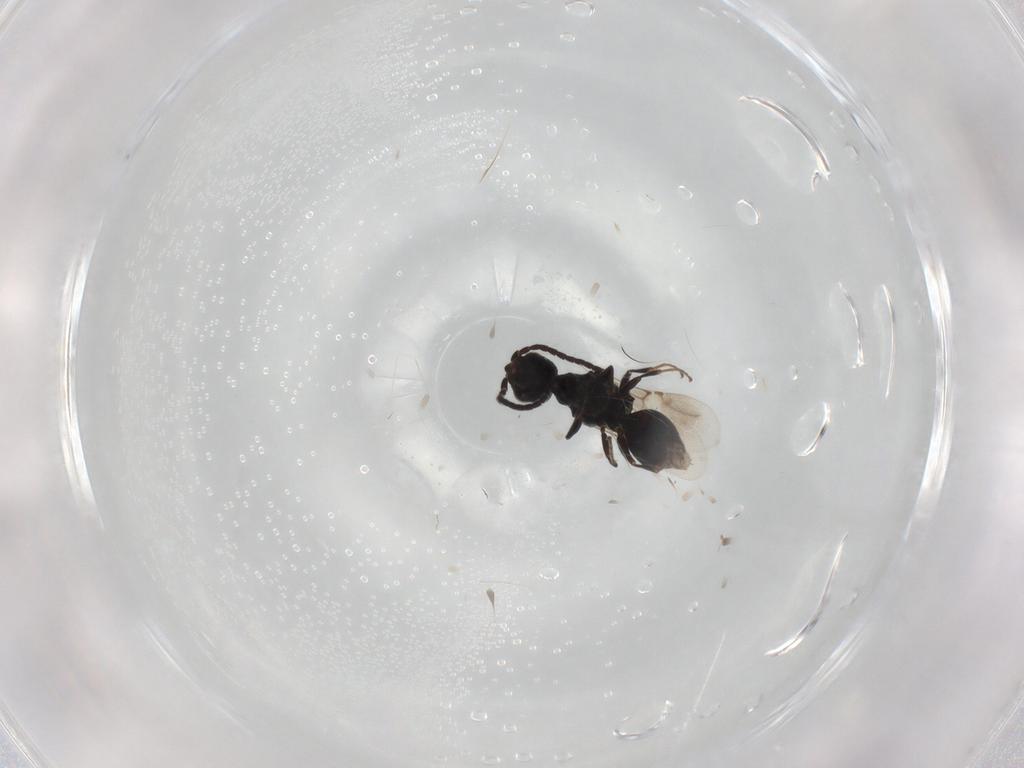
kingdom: Animalia
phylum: Arthropoda
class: Insecta
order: Hymenoptera
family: Bethylidae
